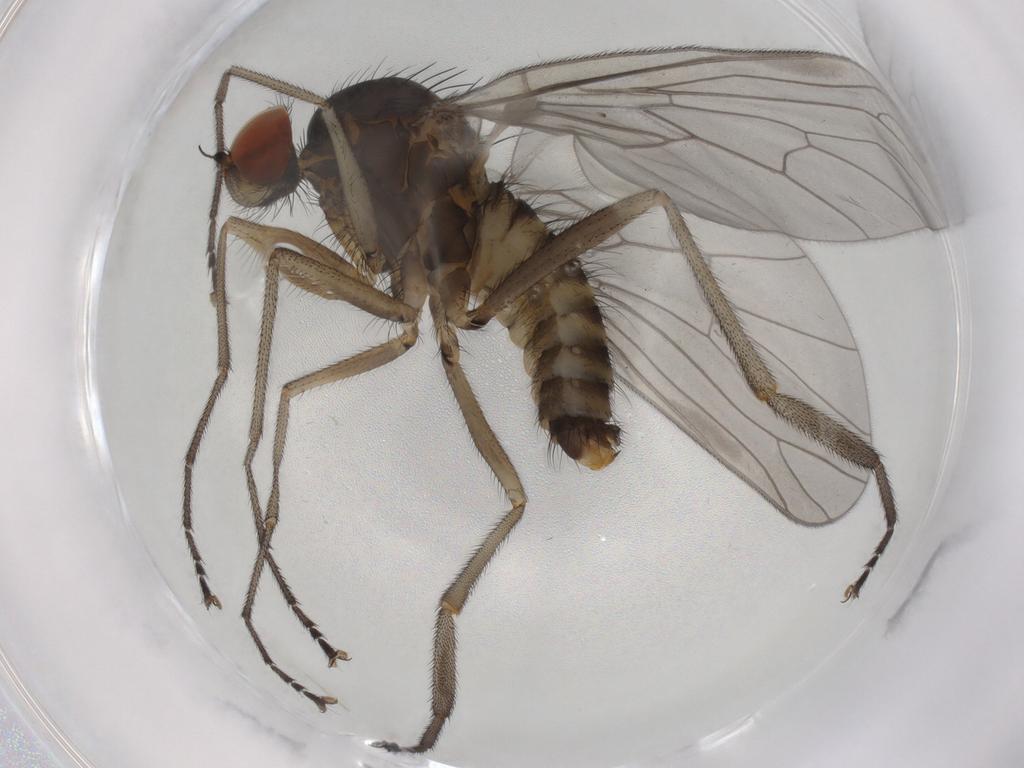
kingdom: Animalia
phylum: Arthropoda
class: Insecta
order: Diptera
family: Brachystomatidae
